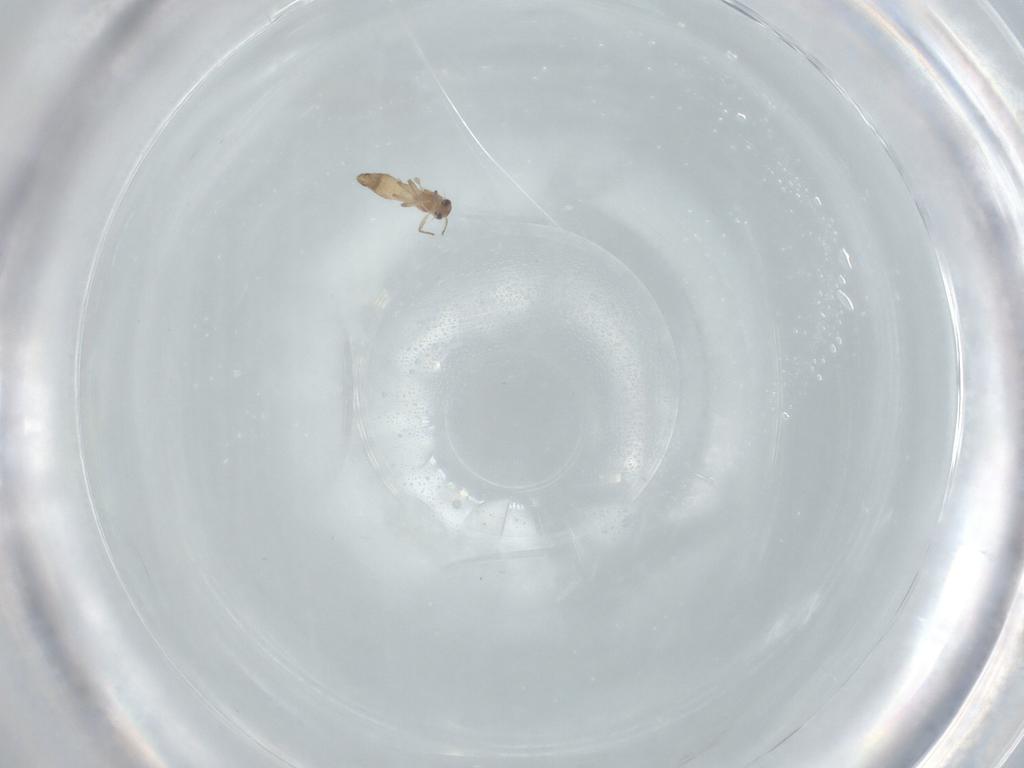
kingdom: Animalia
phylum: Arthropoda
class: Insecta
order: Diptera
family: Chironomidae
